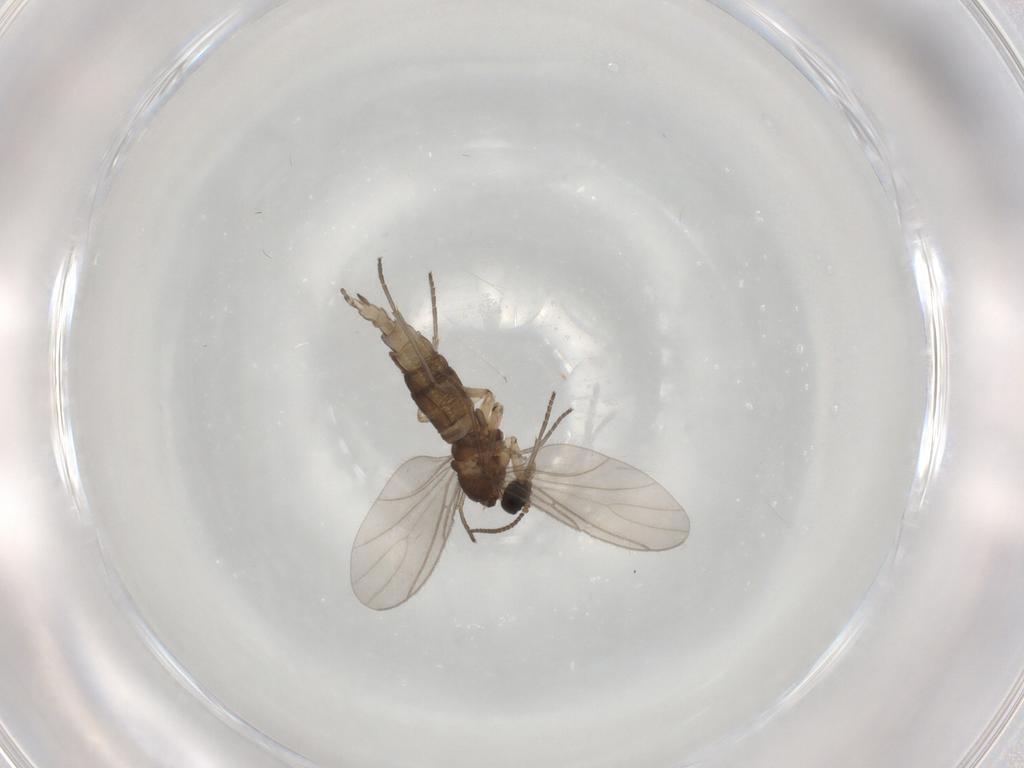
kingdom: Animalia
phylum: Arthropoda
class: Insecta
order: Diptera
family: Sciaridae
